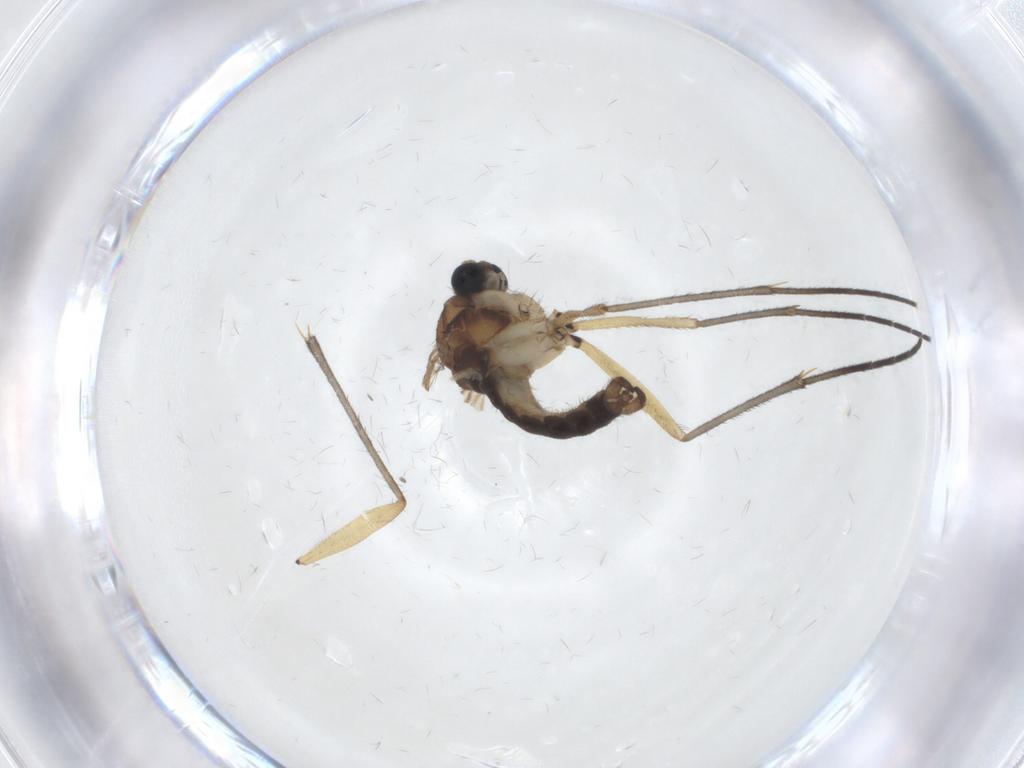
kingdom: Animalia
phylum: Arthropoda
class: Insecta
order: Diptera
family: Sciaridae
